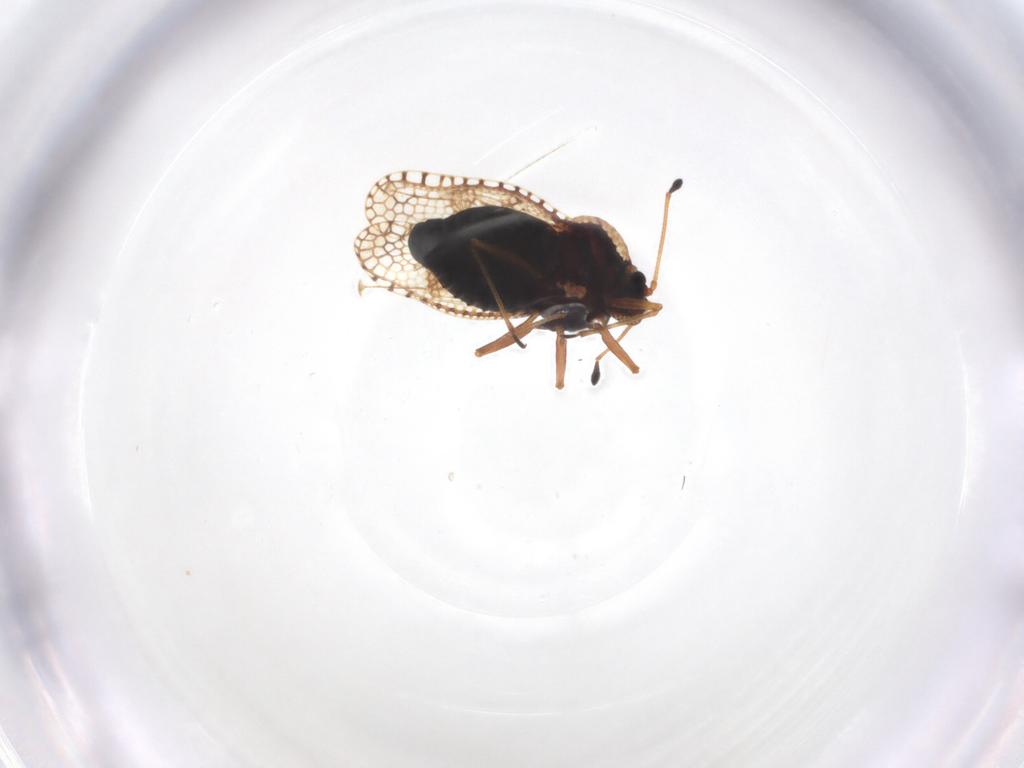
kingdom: Animalia
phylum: Arthropoda
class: Insecta
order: Hemiptera
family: Tingidae
